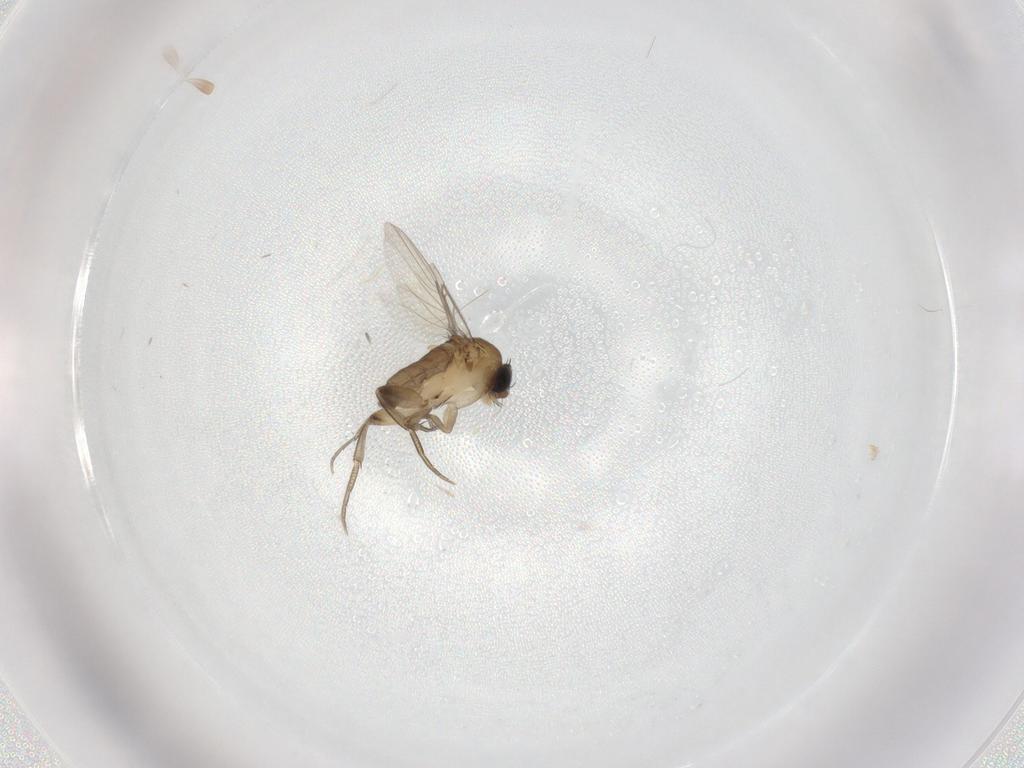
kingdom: Animalia
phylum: Arthropoda
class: Insecta
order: Diptera
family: Phoridae
